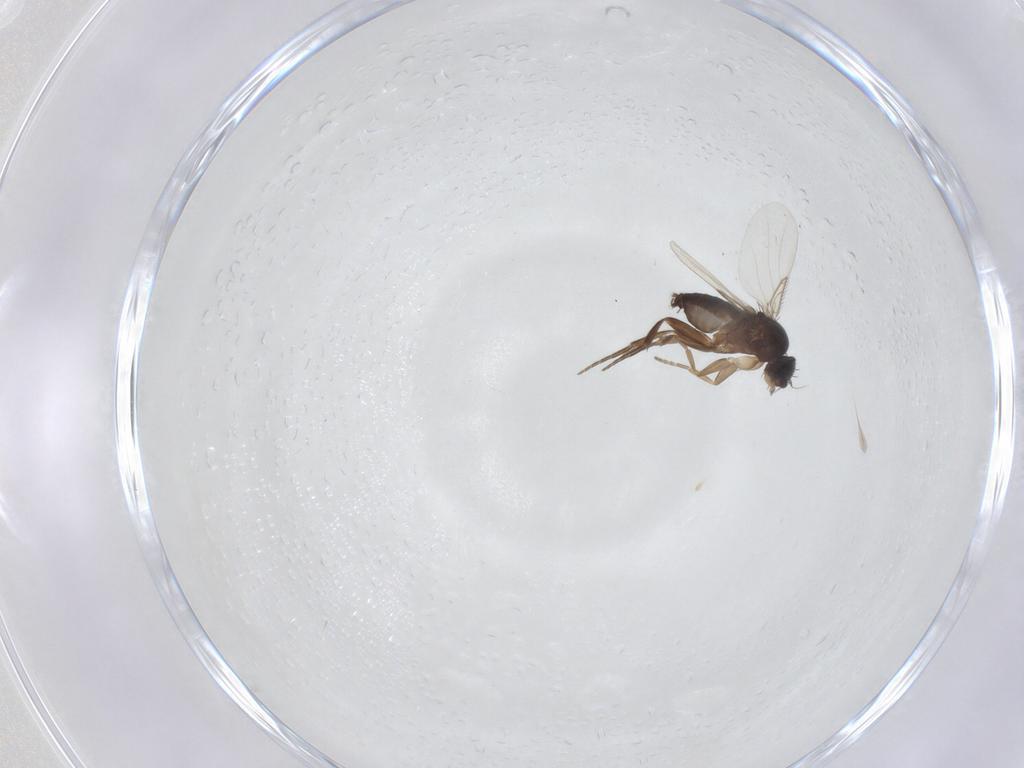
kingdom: Animalia
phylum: Arthropoda
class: Insecta
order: Diptera
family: Phoridae
